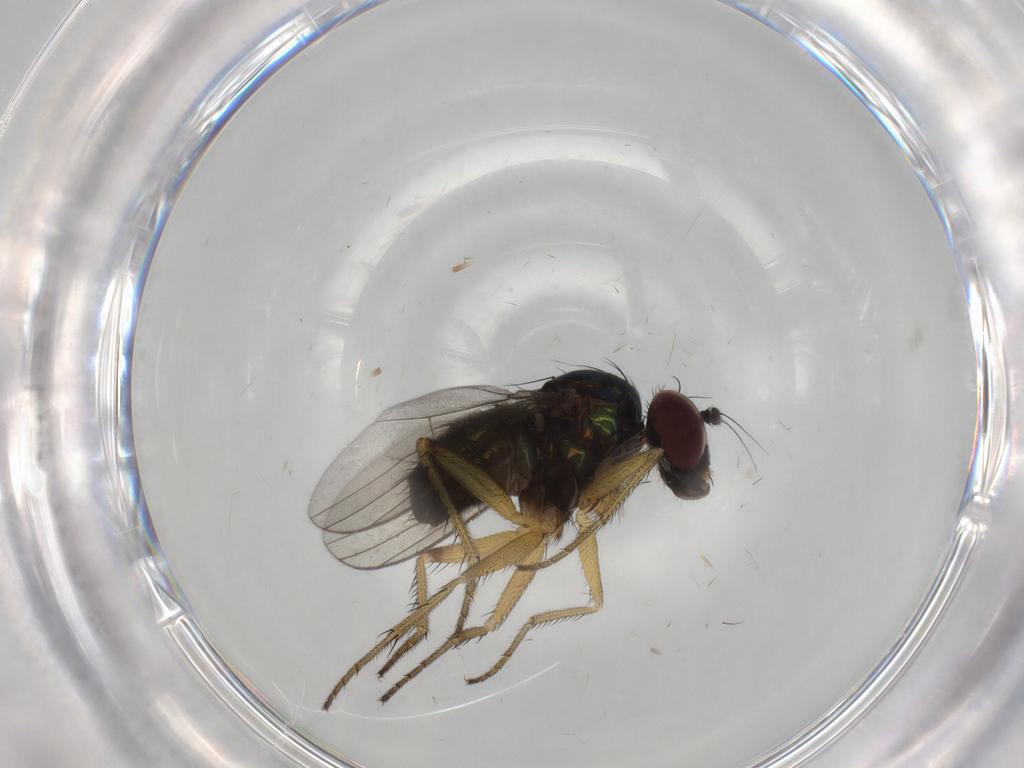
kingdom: Animalia
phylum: Arthropoda
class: Insecta
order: Diptera
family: Dolichopodidae
